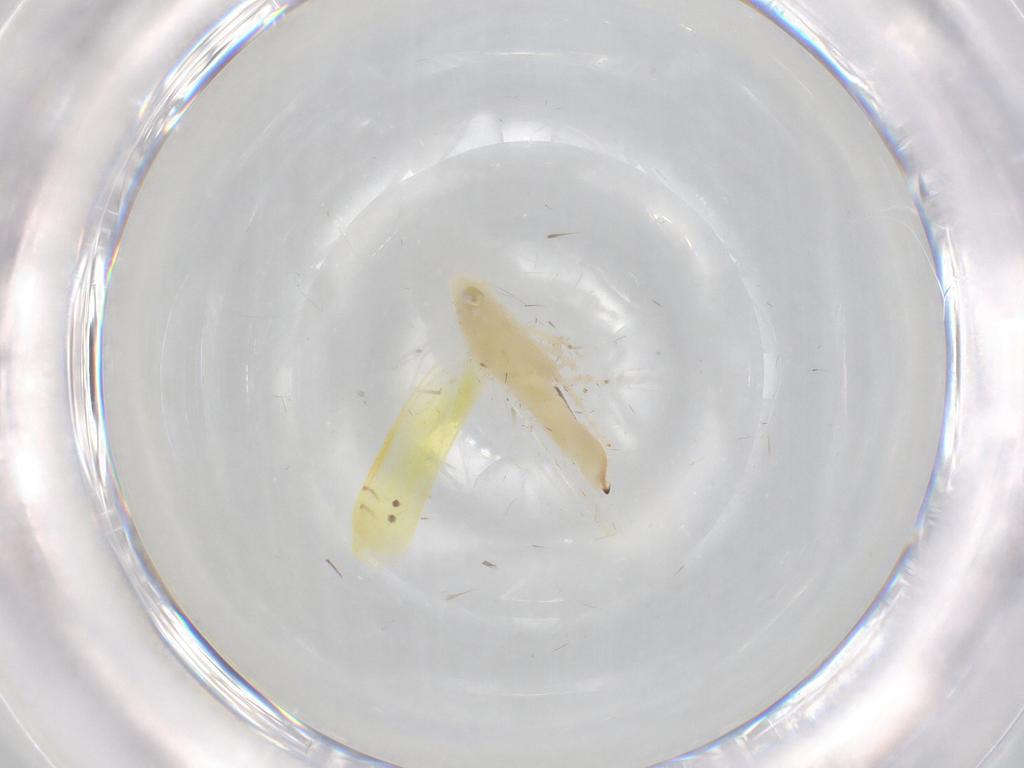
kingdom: Animalia
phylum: Arthropoda
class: Insecta
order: Hemiptera
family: Cicadellidae
